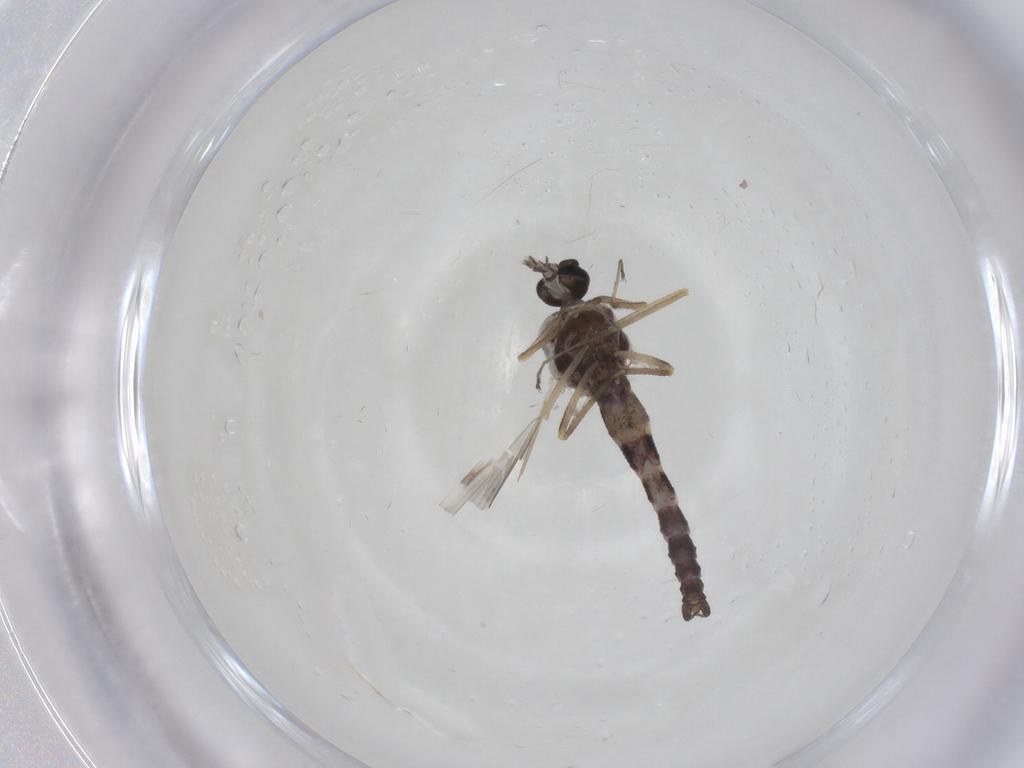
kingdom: Animalia
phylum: Arthropoda
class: Insecta
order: Diptera
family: Ceratopogonidae
